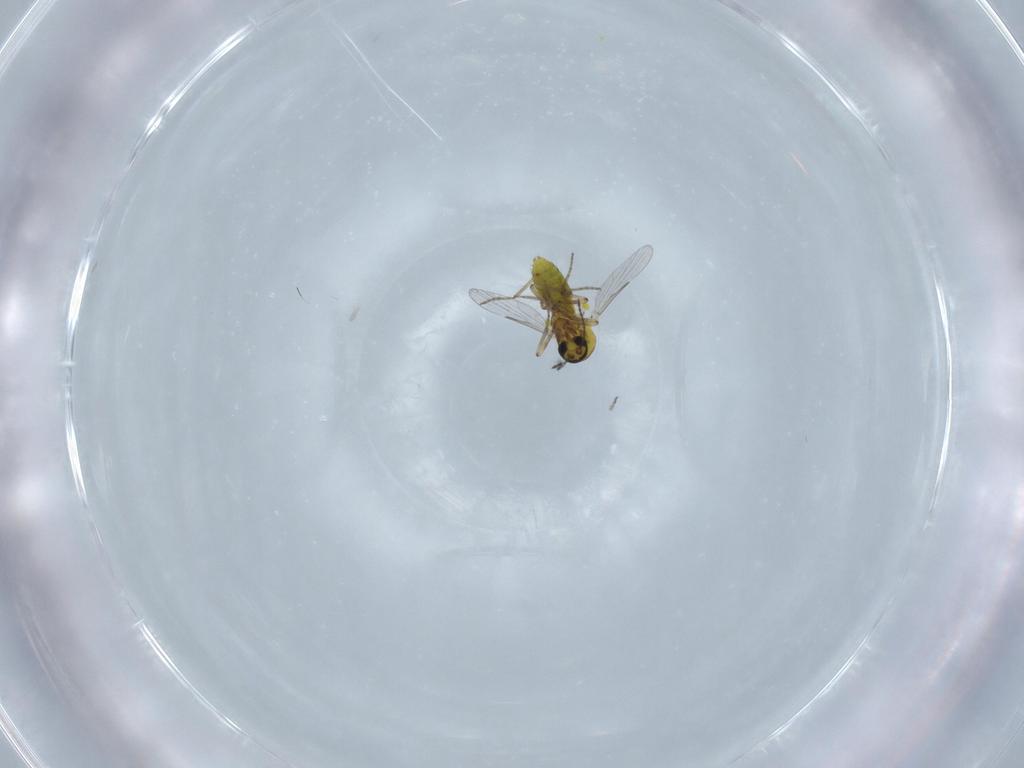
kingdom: Animalia
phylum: Arthropoda
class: Insecta
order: Diptera
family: Ceratopogonidae
